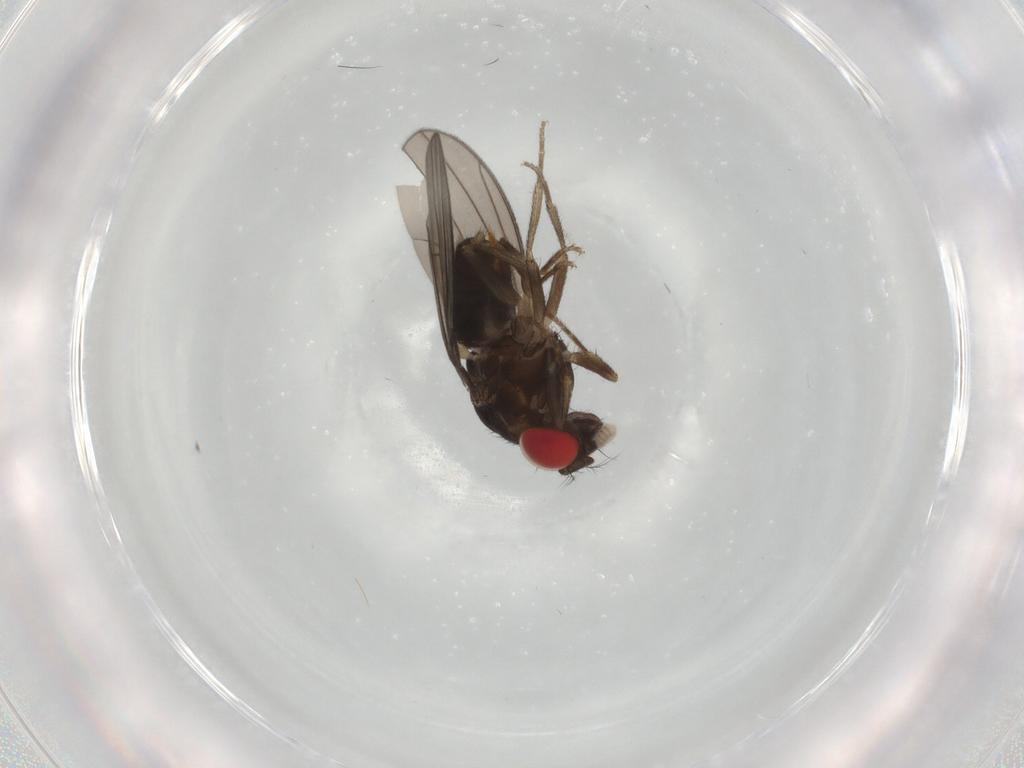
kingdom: Animalia
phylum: Arthropoda
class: Insecta
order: Diptera
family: Drosophilidae
